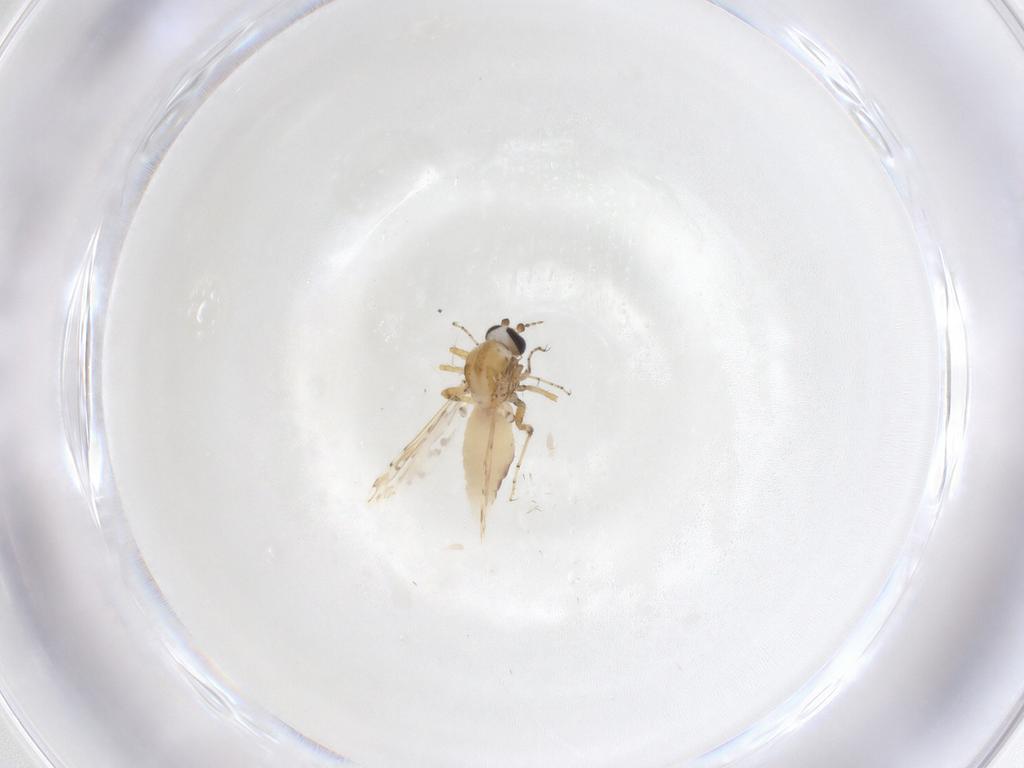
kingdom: Animalia
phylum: Arthropoda
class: Insecta
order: Diptera
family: Ceratopogonidae
